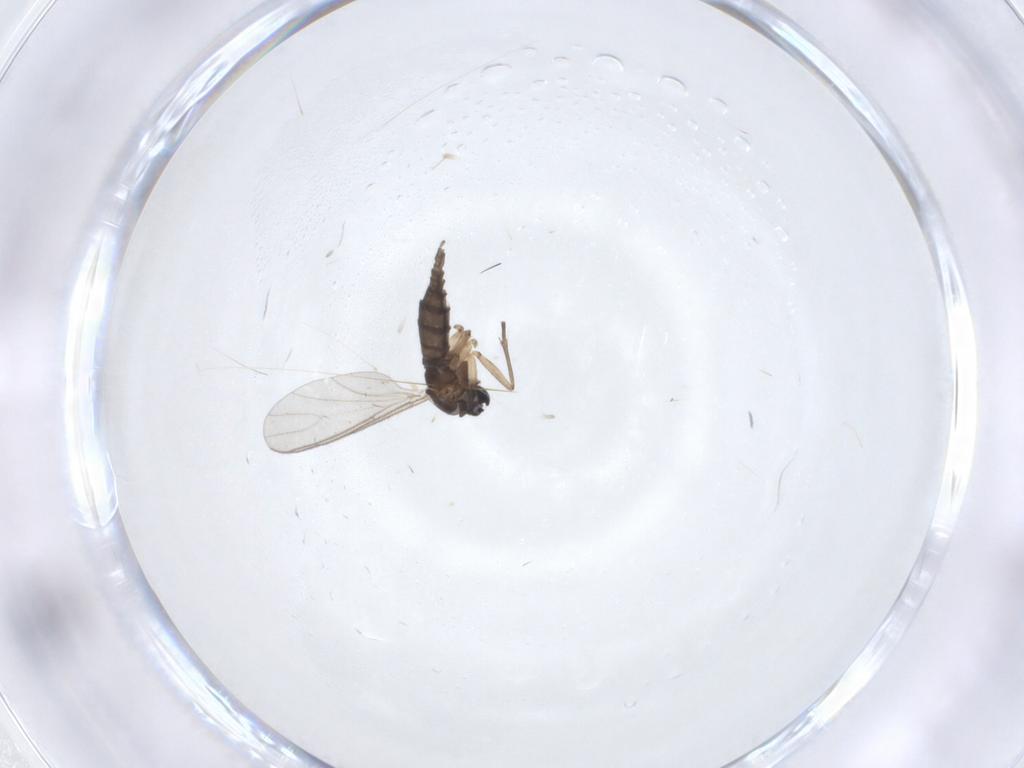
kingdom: Animalia
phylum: Arthropoda
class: Insecta
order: Diptera
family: Sciaridae
